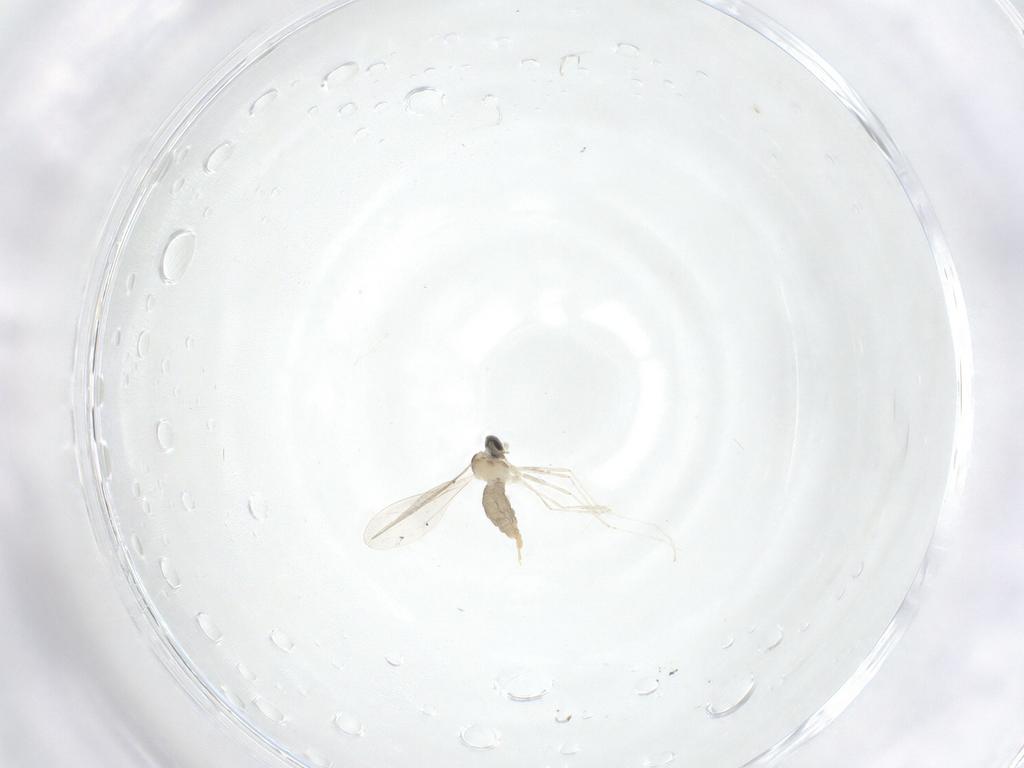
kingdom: Animalia
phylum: Arthropoda
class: Insecta
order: Diptera
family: Cecidomyiidae
